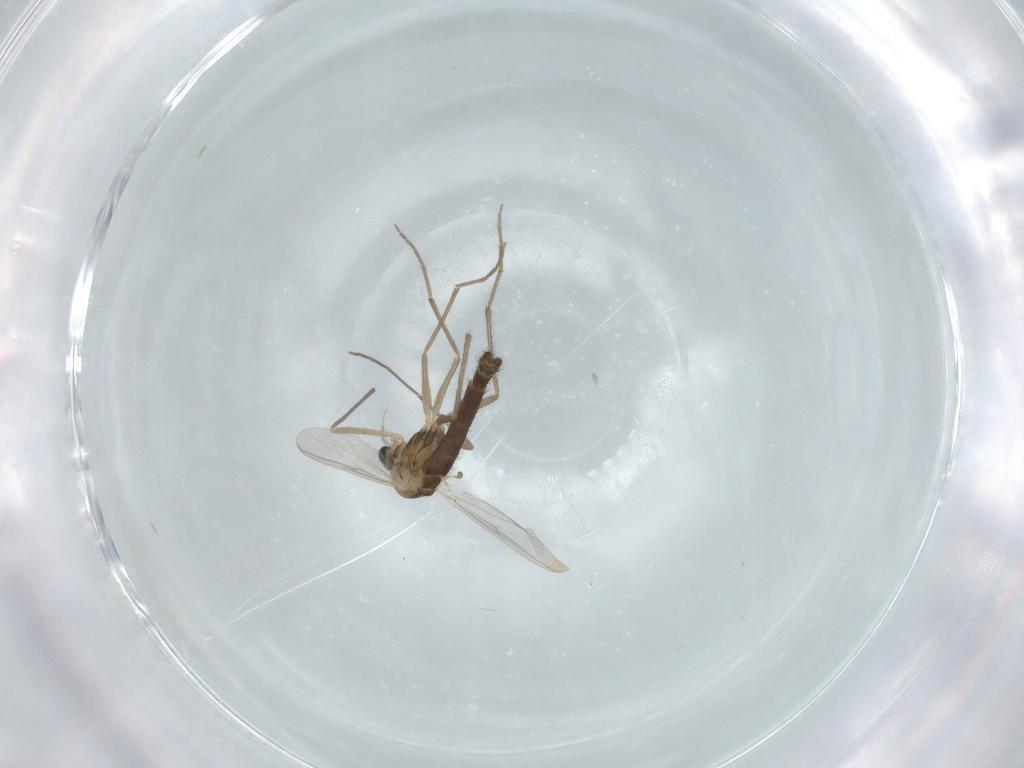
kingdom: Animalia
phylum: Arthropoda
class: Insecta
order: Diptera
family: Chironomidae
